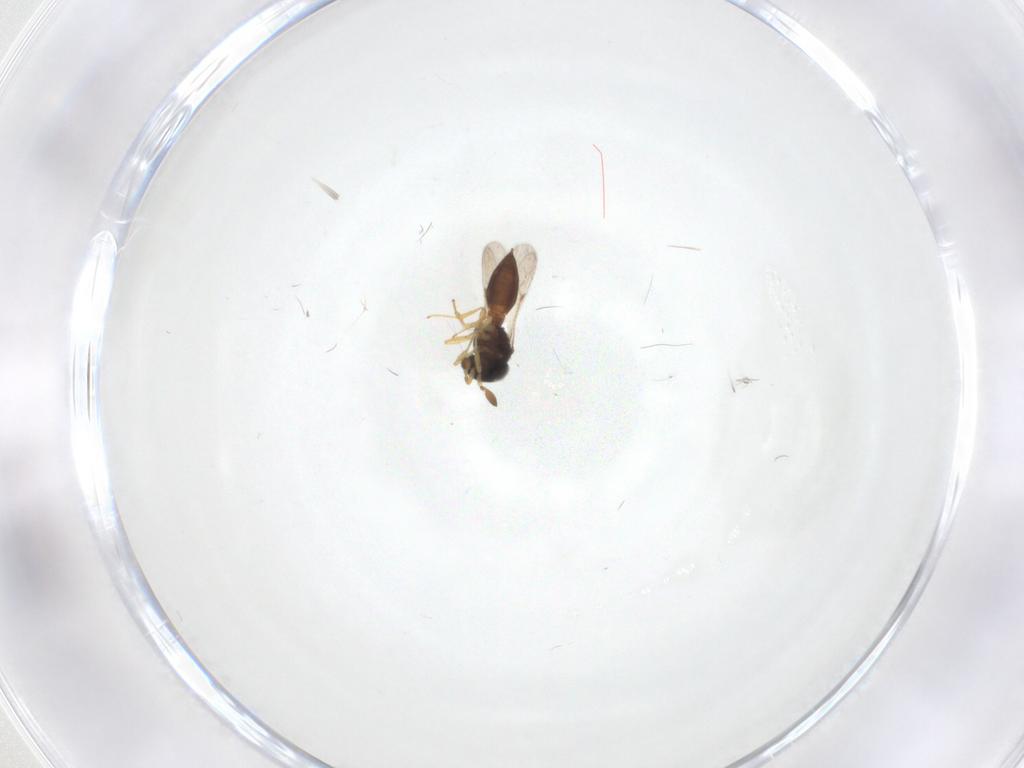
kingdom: Animalia
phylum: Arthropoda
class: Insecta
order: Hymenoptera
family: Scelionidae
